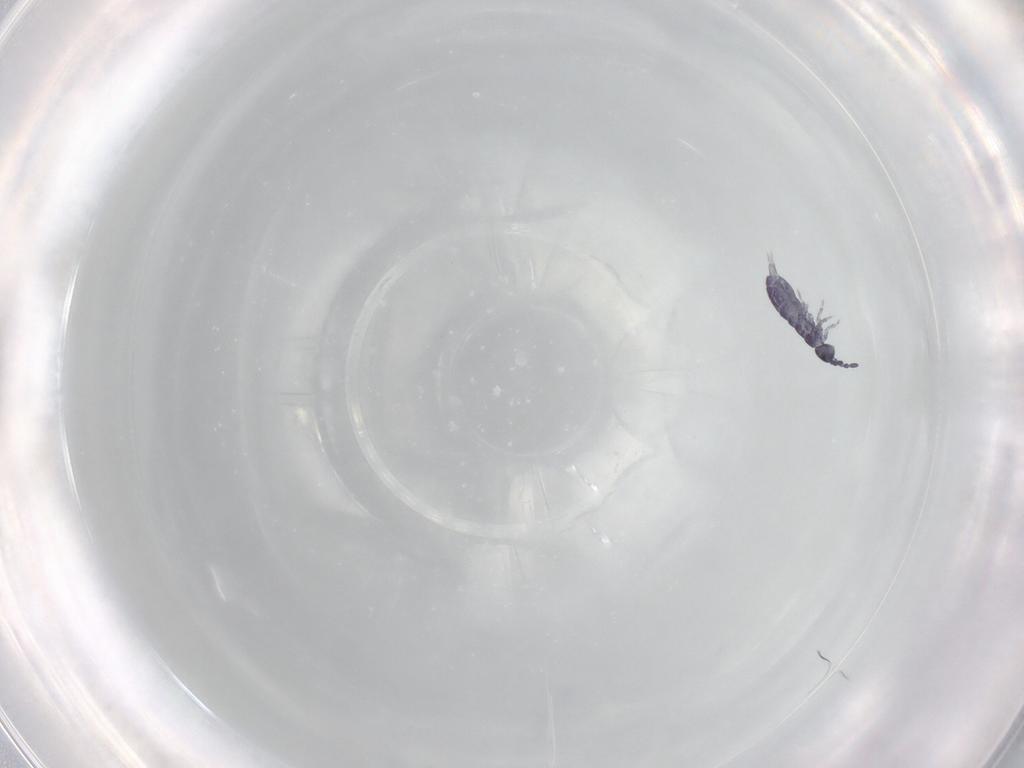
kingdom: Animalia
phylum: Arthropoda
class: Collembola
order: Entomobryomorpha
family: Isotomidae
